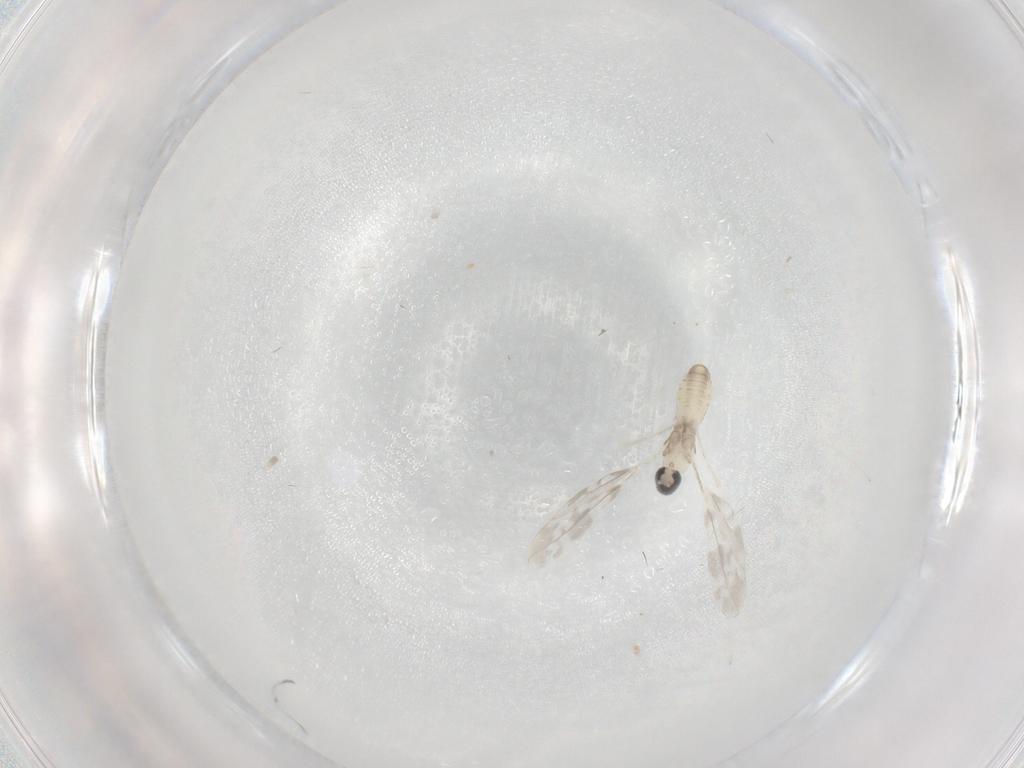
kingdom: Animalia
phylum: Arthropoda
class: Insecta
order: Diptera
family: Cecidomyiidae
